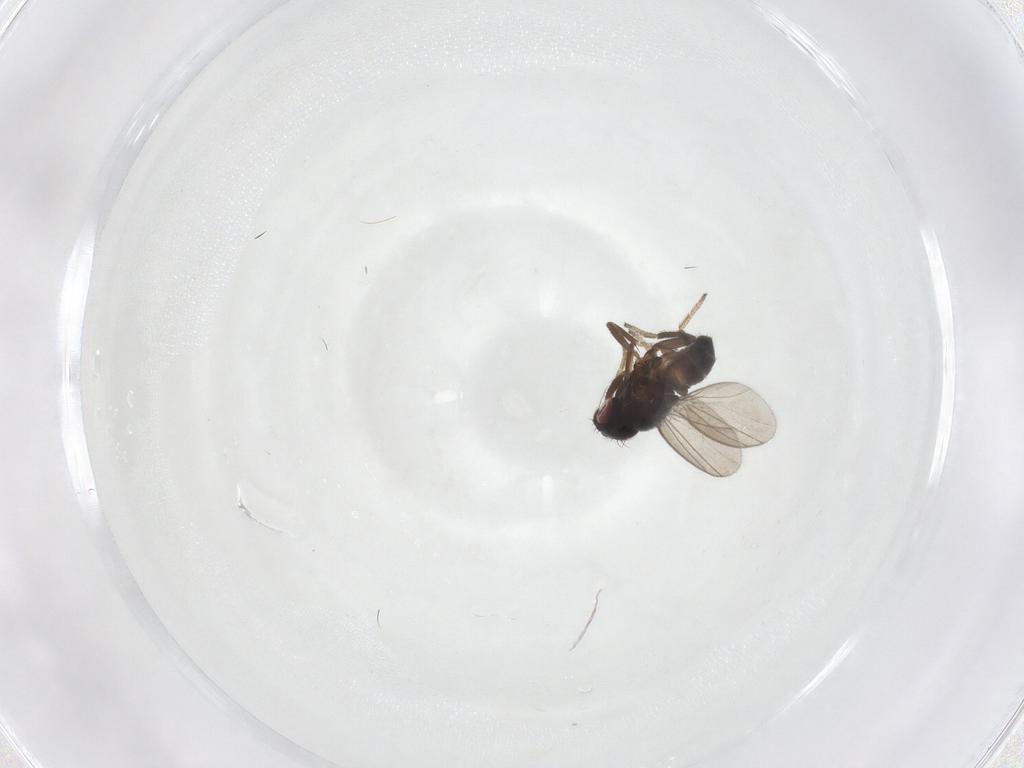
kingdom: Animalia
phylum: Arthropoda
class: Insecta
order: Diptera
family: Milichiidae
